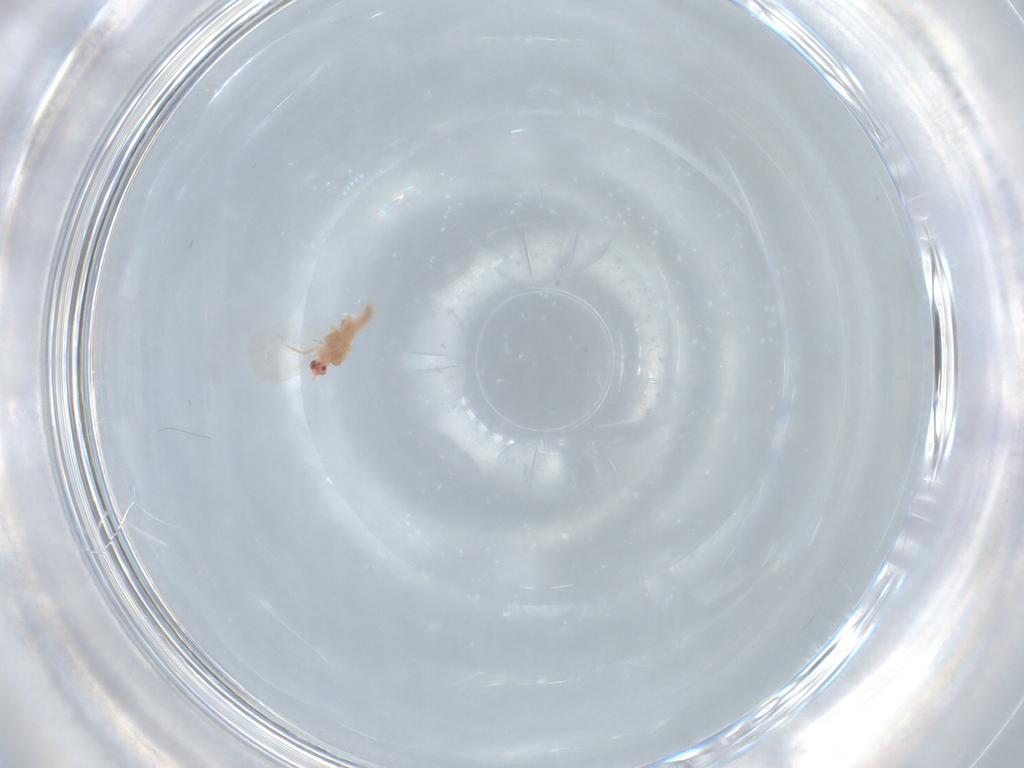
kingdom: Animalia
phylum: Arthropoda
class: Insecta
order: Hemiptera
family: Pseudococcidae
